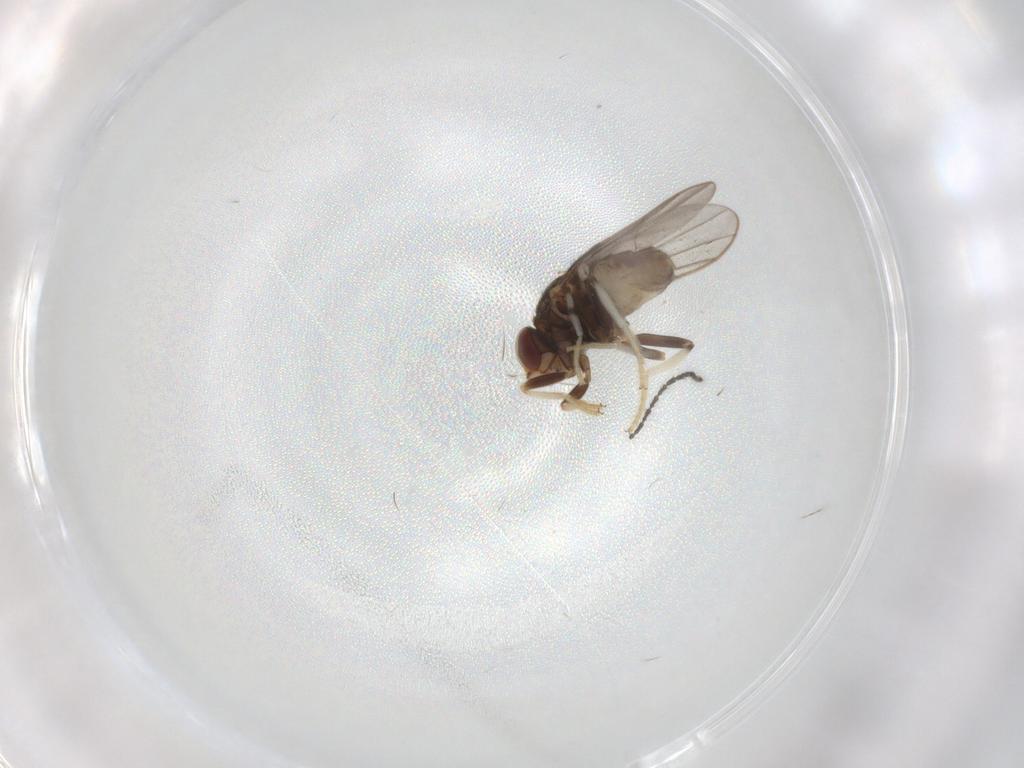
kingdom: Animalia
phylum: Arthropoda
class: Insecta
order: Diptera
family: Chloropidae
